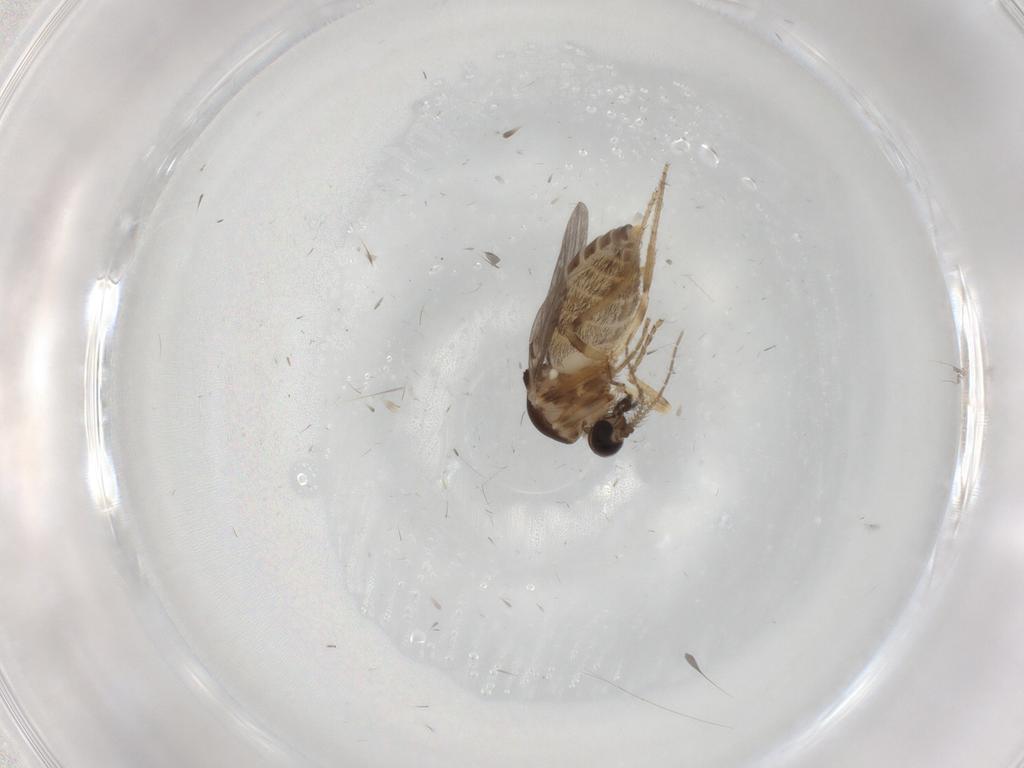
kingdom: Animalia
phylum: Arthropoda
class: Insecta
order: Diptera
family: Ceratopogonidae
